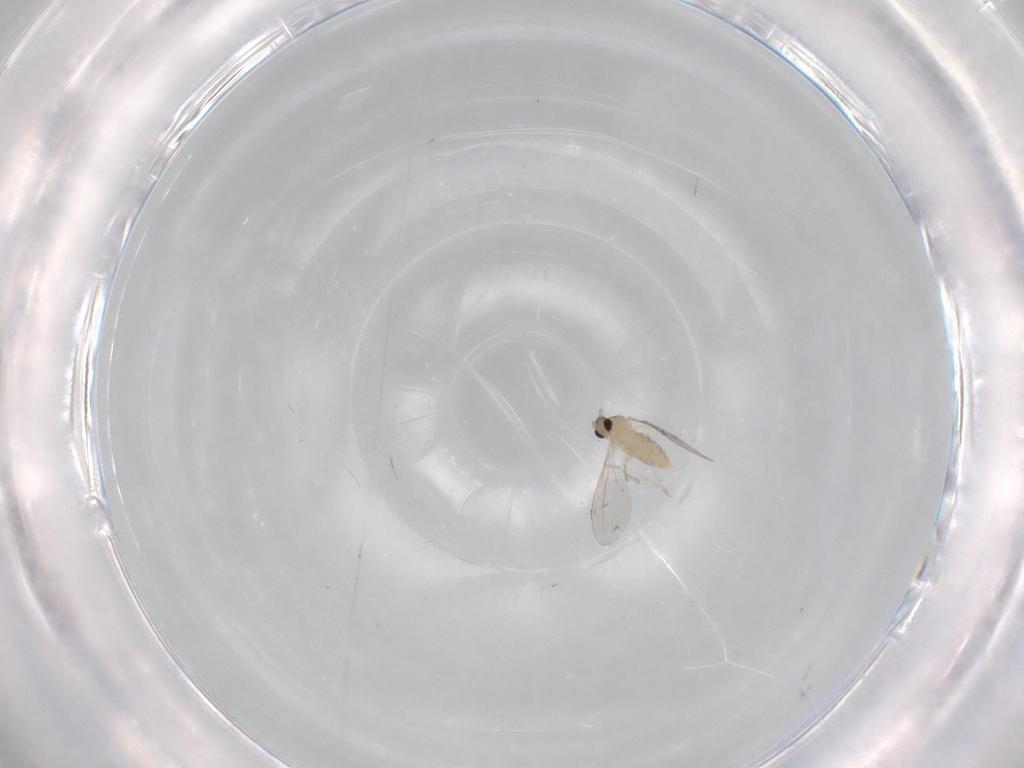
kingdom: Animalia
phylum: Arthropoda
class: Insecta
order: Diptera
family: Cecidomyiidae
